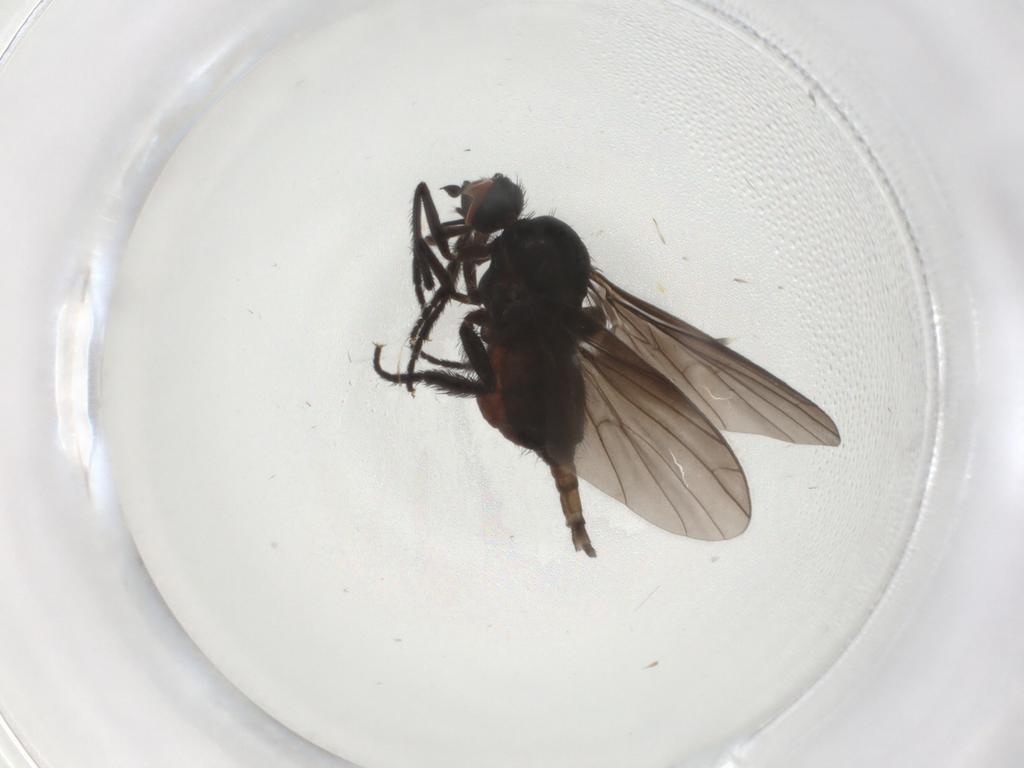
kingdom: Animalia
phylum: Arthropoda
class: Insecta
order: Diptera
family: Empididae
